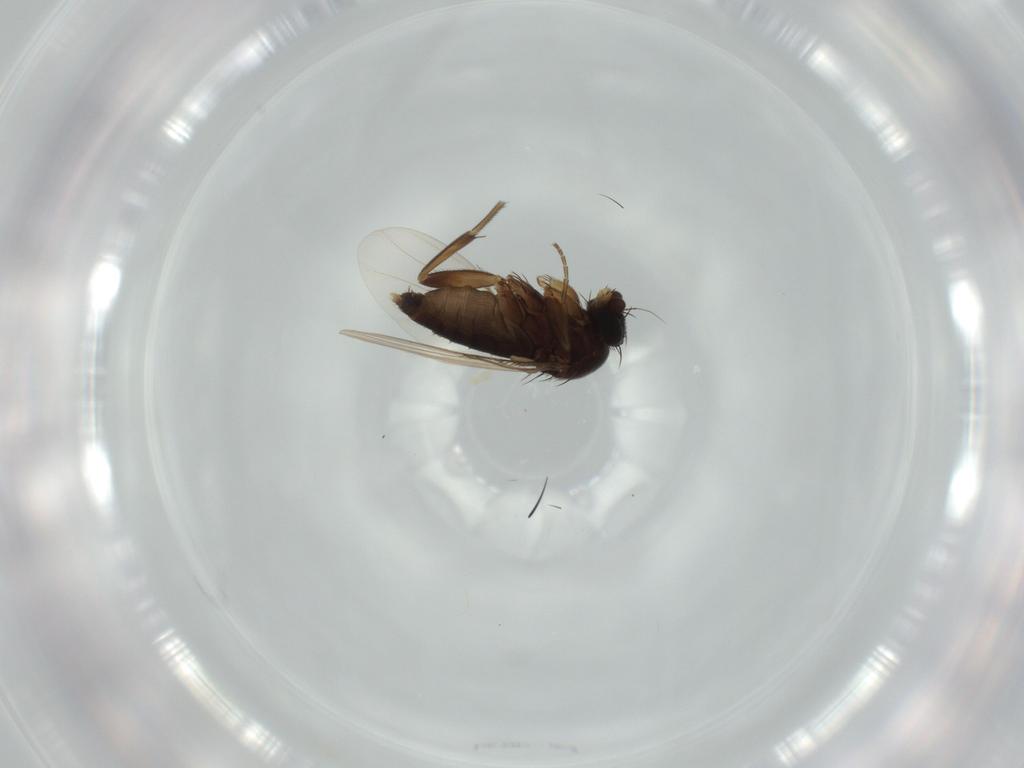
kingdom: Animalia
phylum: Arthropoda
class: Insecta
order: Diptera
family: Phoridae
